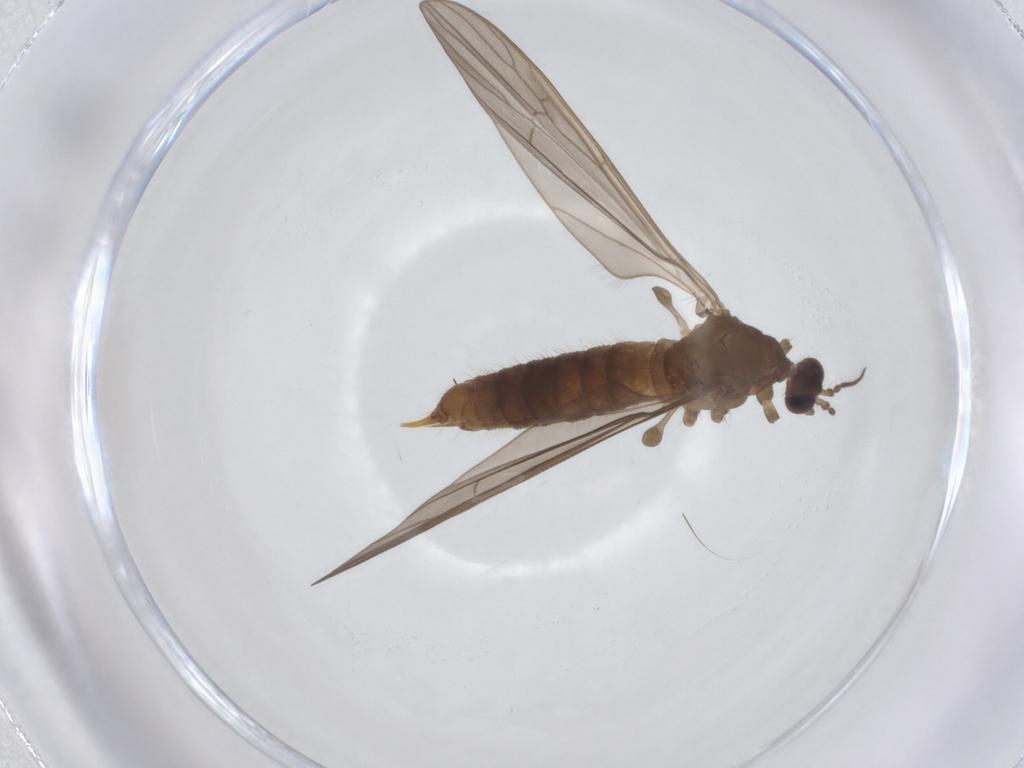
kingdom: Animalia
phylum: Arthropoda
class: Insecta
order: Diptera
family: Limoniidae
